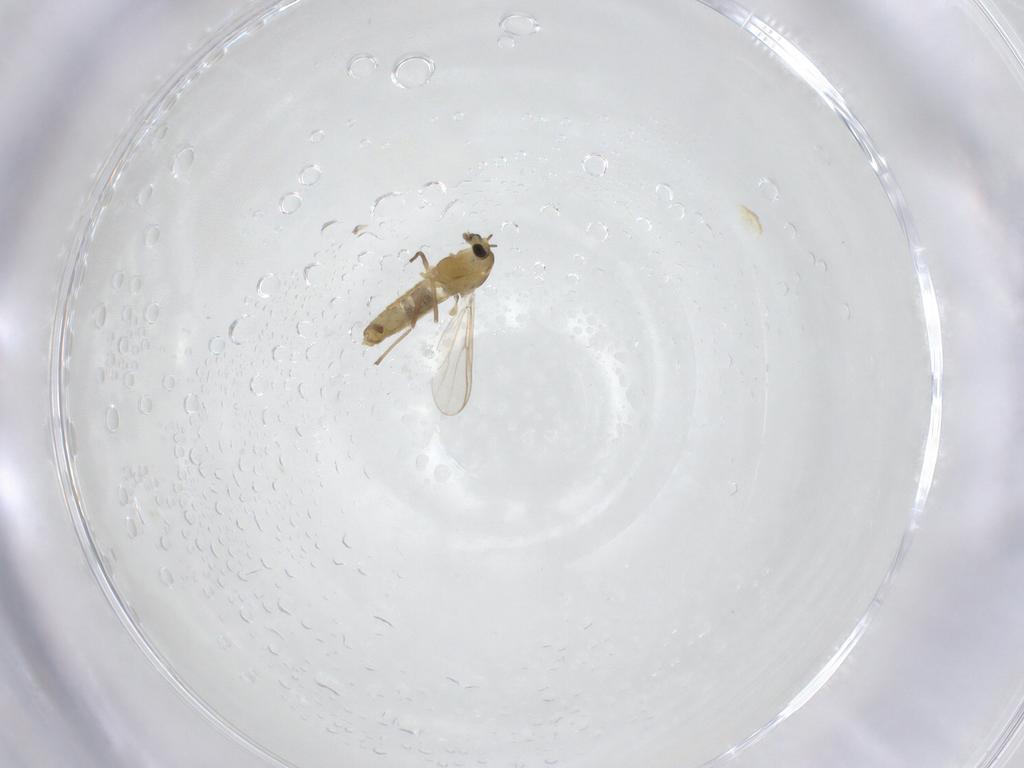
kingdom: Animalia
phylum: Arthropoda
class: Insecta
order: Diptera
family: Chironomidae
